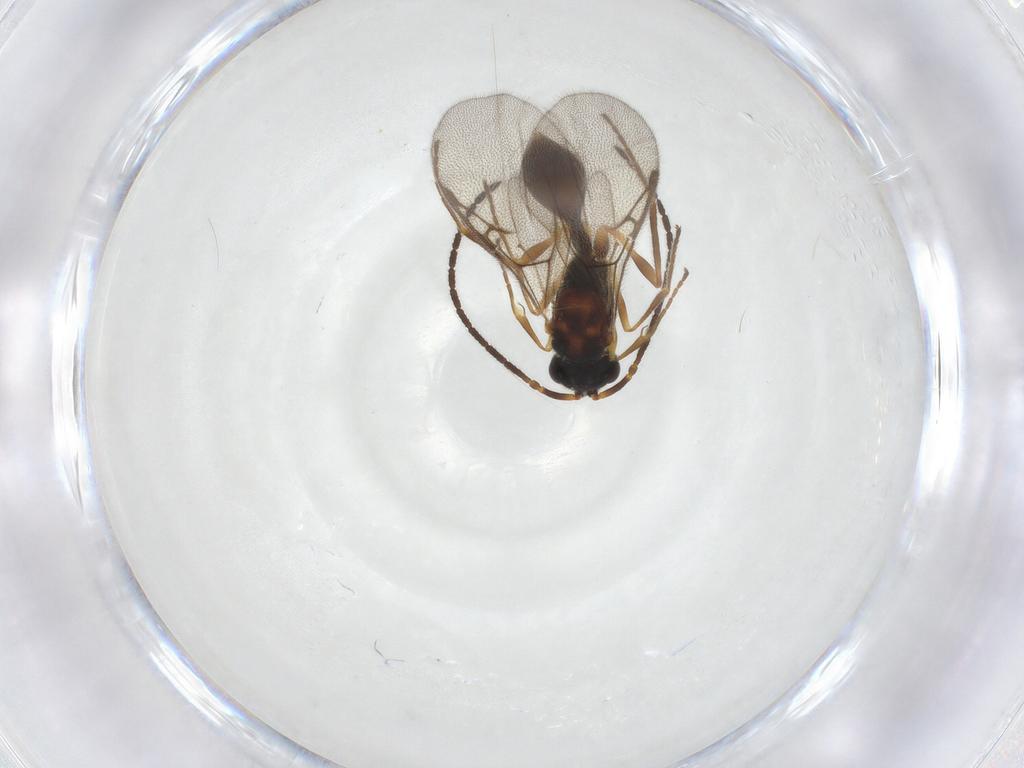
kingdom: Animalia
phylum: Arthropoda
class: Insecta
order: Hymenoptera
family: Diapriidae
